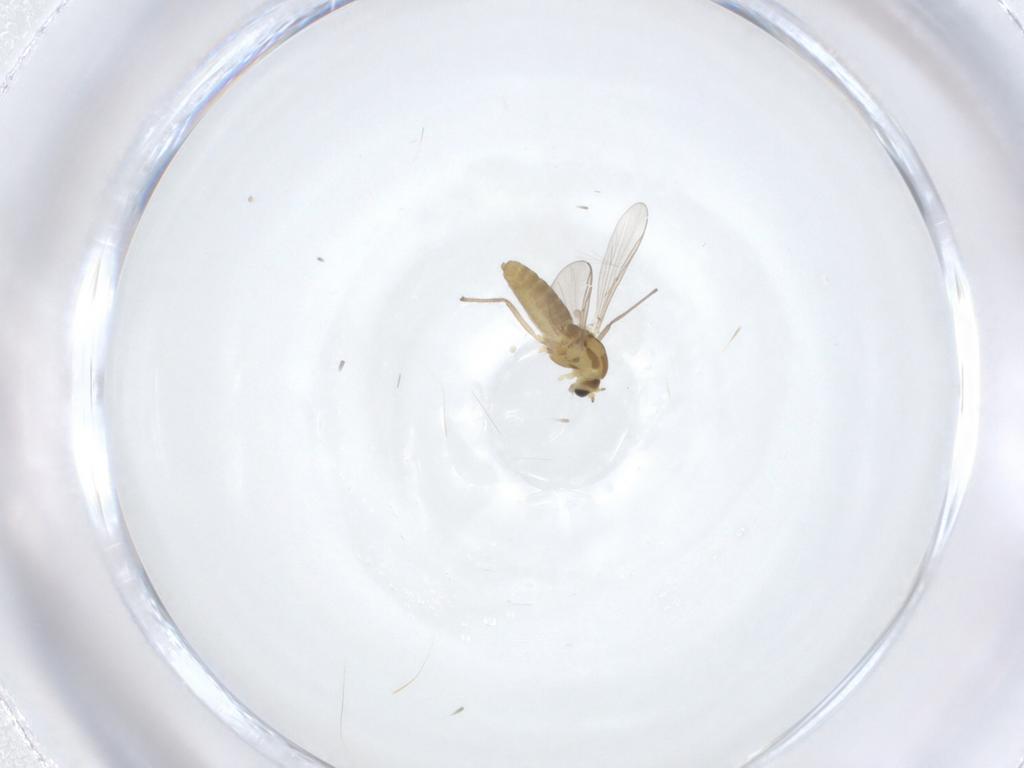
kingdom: Animalia
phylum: Arthropoda
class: Insecta
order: Diptera
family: Chironomidae
